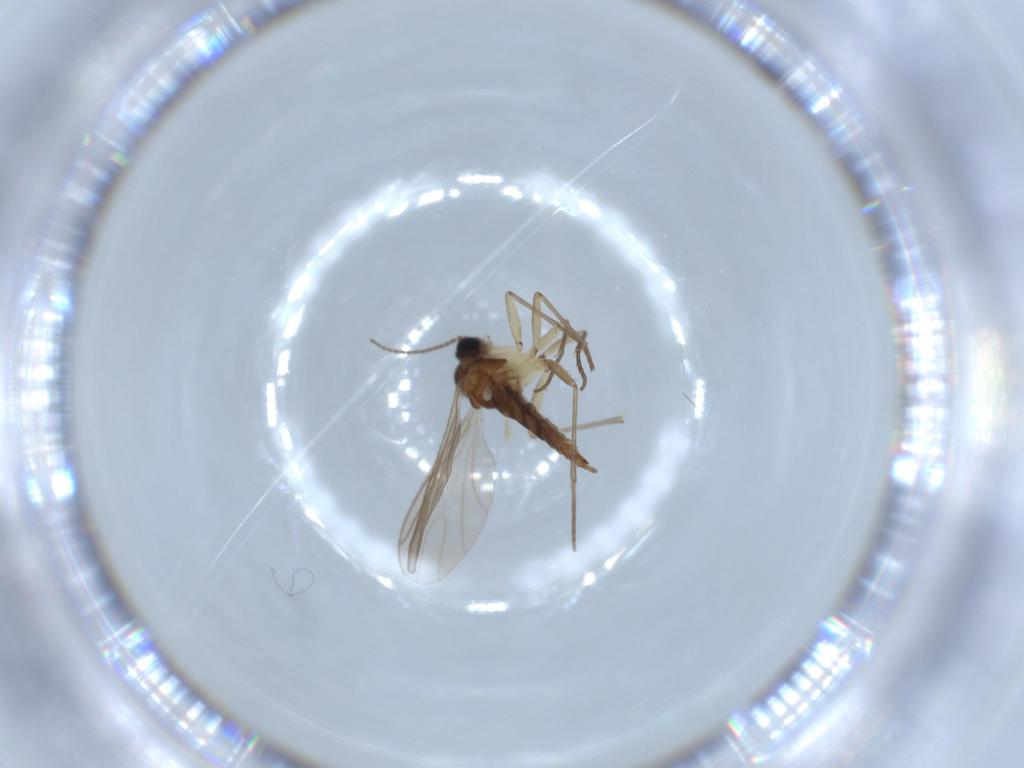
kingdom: Animalia
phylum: Arthropoda
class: Insecta
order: Diptera
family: Sciaridae
